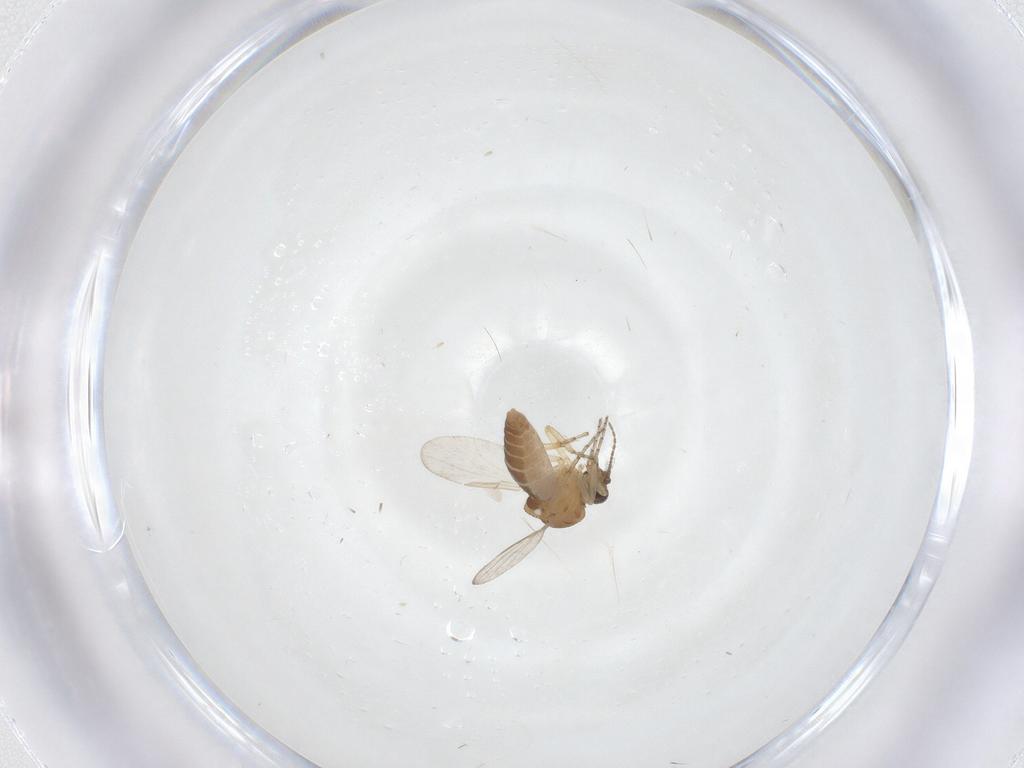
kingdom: Animalia
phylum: Arthropoda
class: Insecta
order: Diptera
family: Ceratopogonidae
